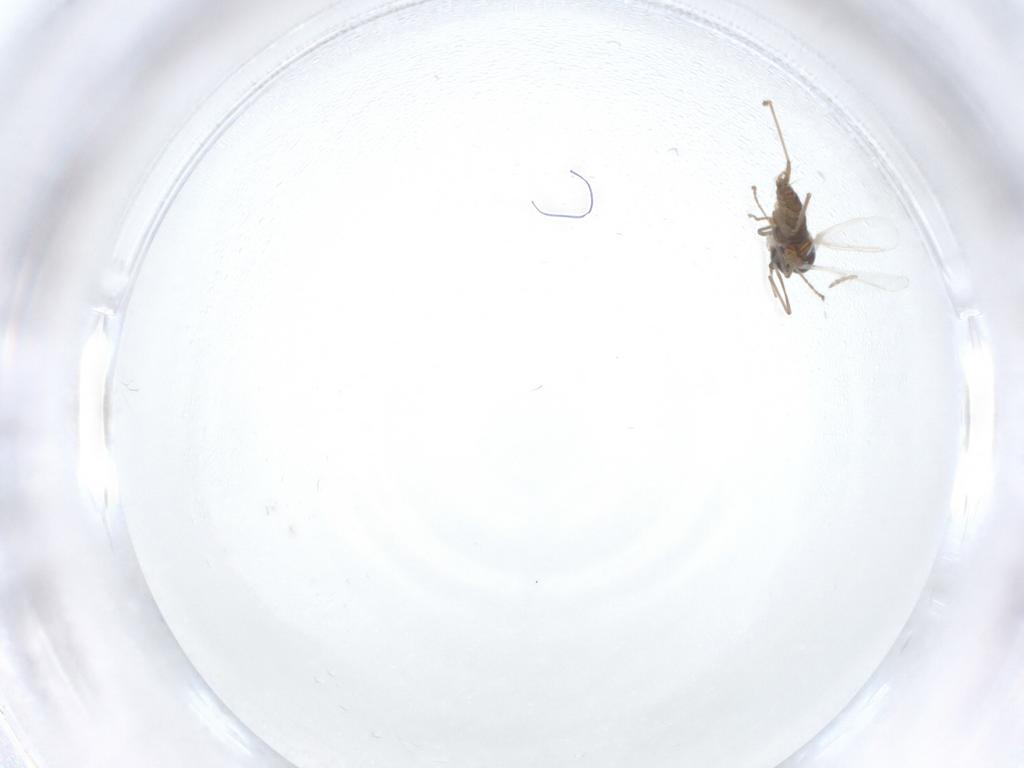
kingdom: Animalia
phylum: Arthropoda
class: Insecta
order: Diptera
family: Cecidomyiidae
